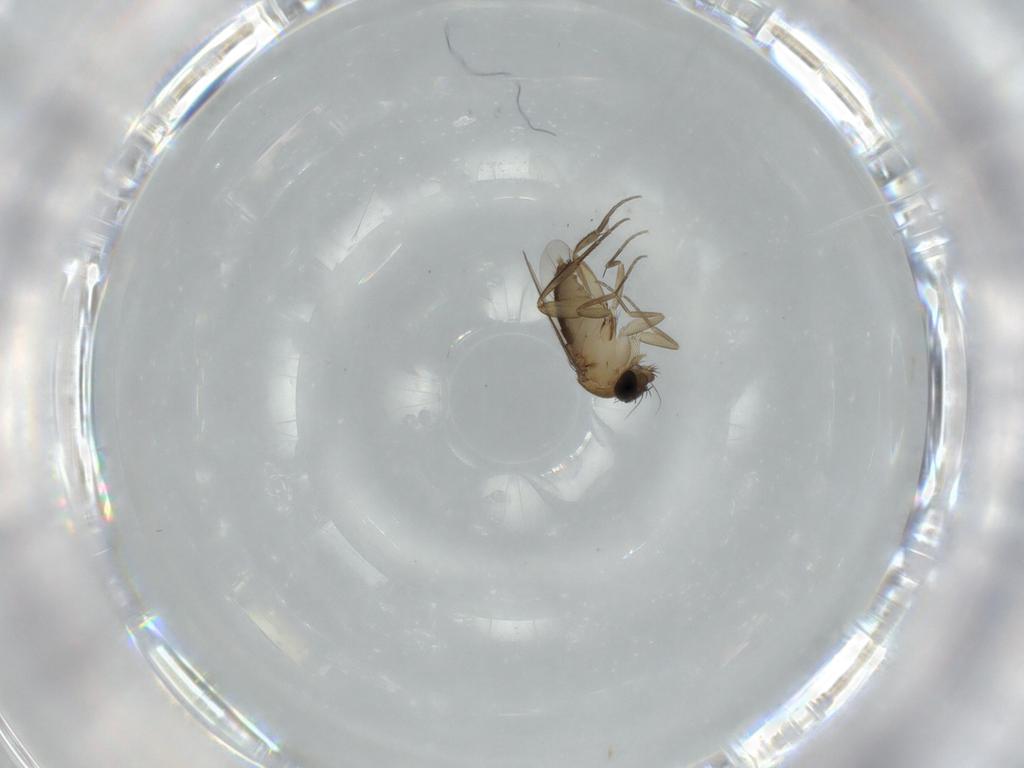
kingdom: Animalia
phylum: Arthropoda
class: Insecta
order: Diptera
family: Phoridae
